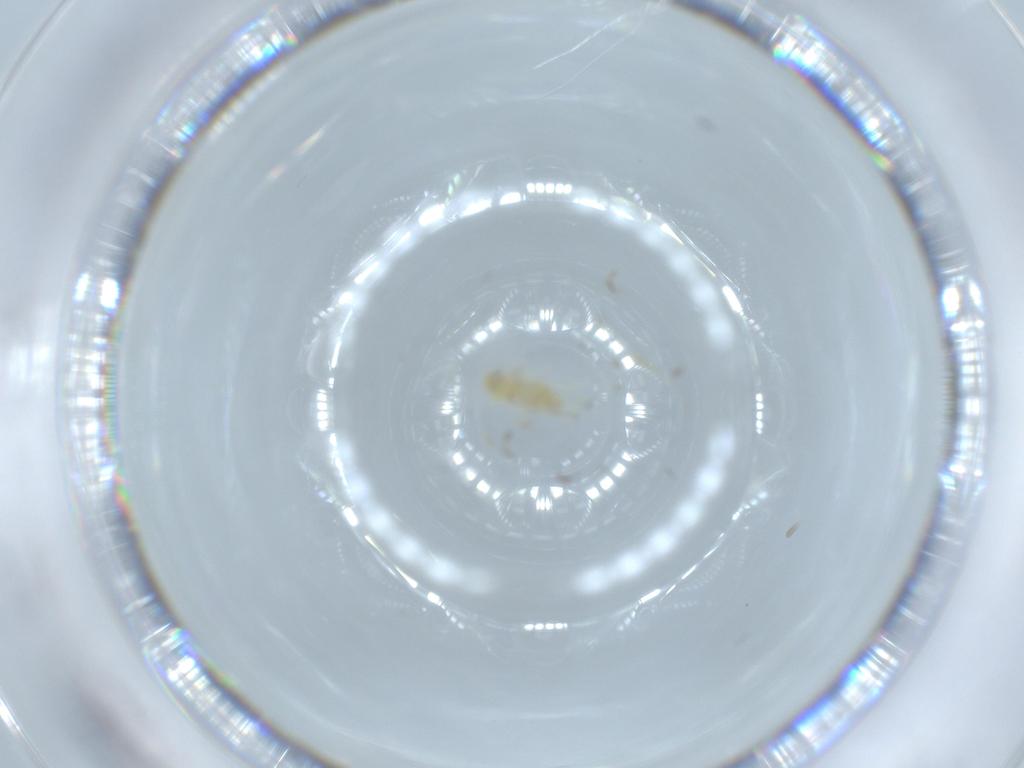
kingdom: Animalia
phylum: Arthropoda
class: Insecta
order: Hemiptera
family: Aleyrodidae
